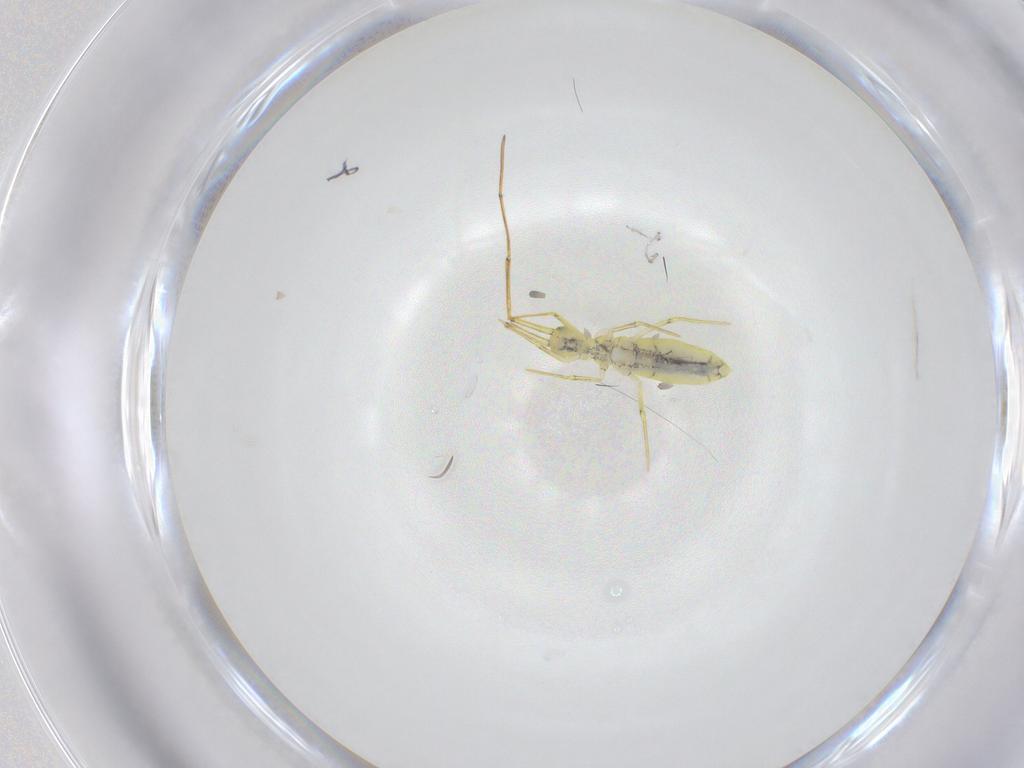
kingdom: Animalia
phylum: Arthropoda
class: Collembola
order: Entomobryomorpha
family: Entomobryidae
